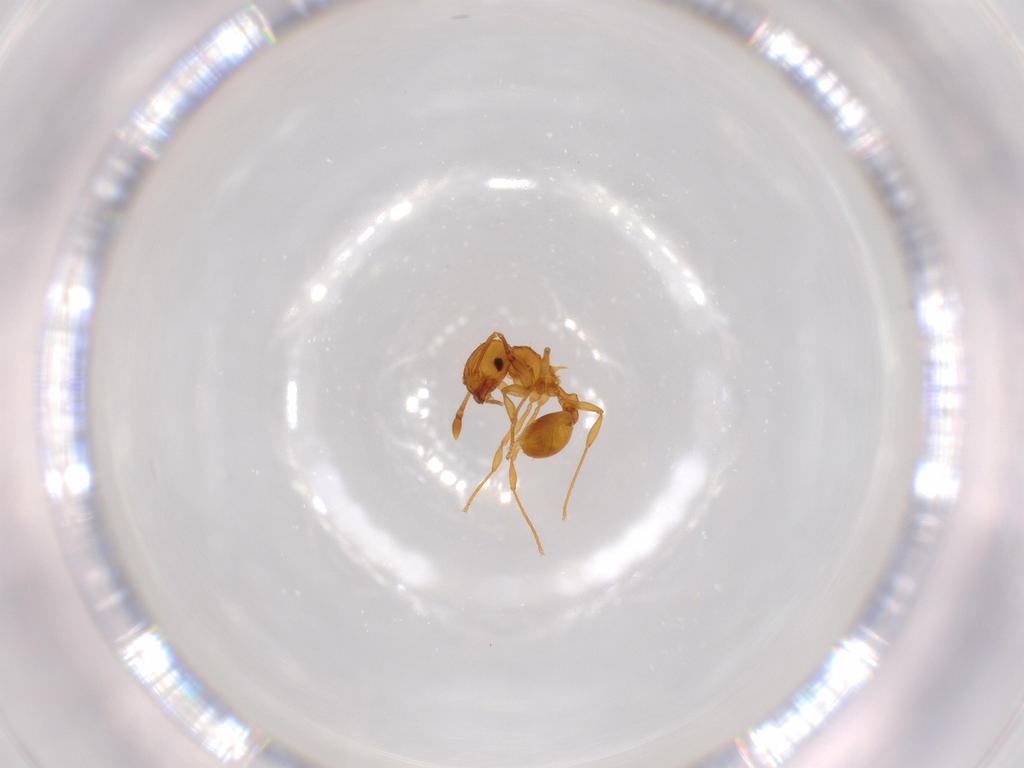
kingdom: Animalia
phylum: Arthropoda
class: Insecta
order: Hymenoptera
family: Formicidae
